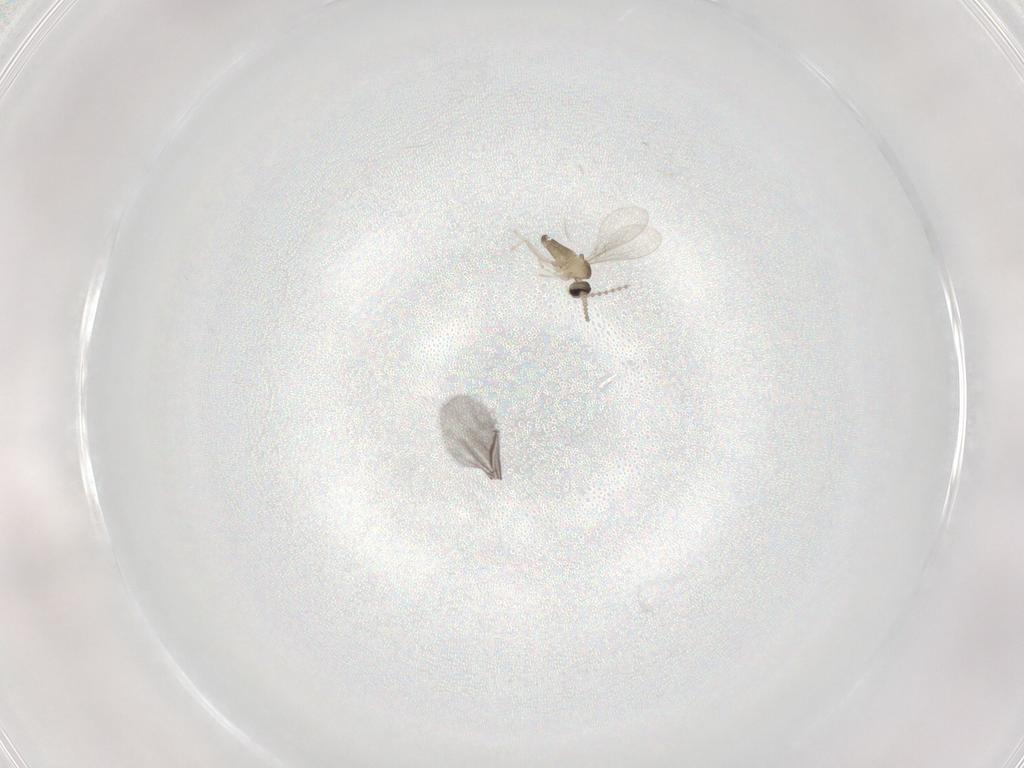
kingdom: Animalia
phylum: Arthropoda
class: Insecta
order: Diptera
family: Cecidomyiidae
